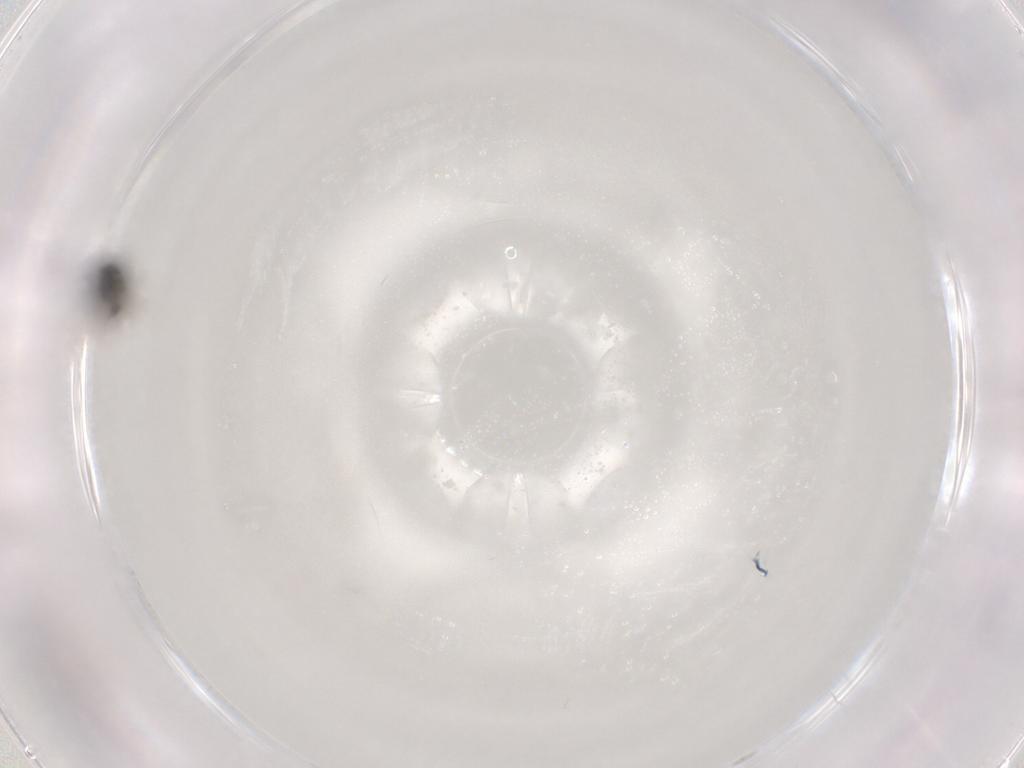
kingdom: Animalia
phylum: Arthropoda
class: Insecta
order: Hymenoptera
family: Scelionidae
